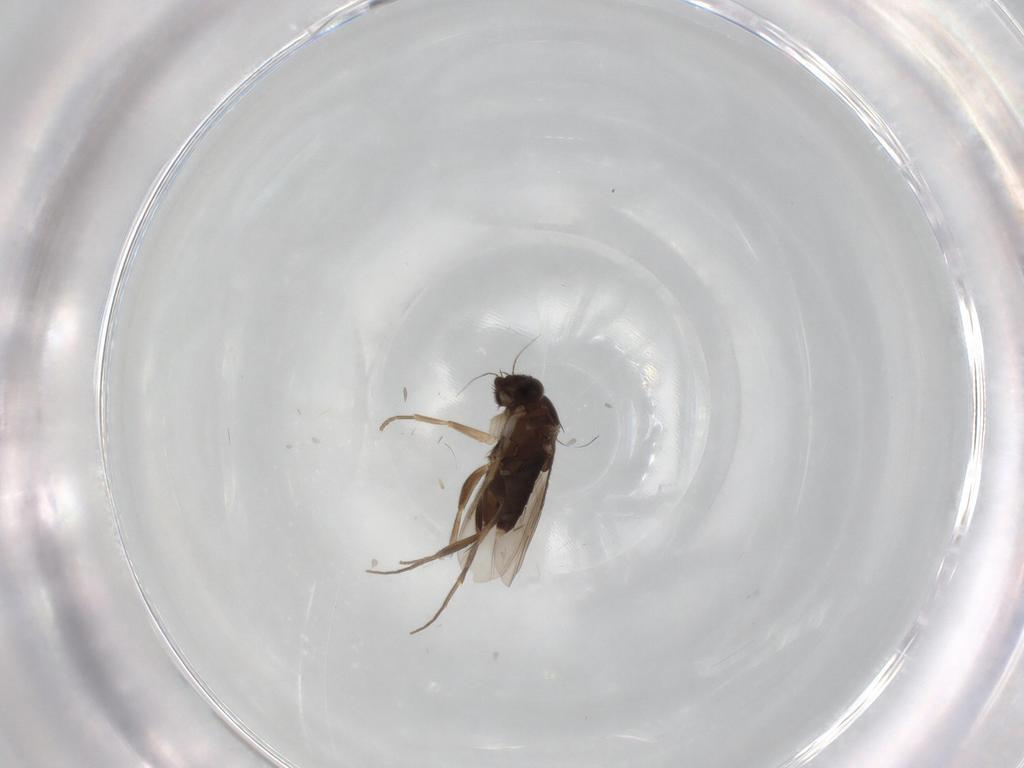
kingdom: Animalia
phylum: Arthropoda
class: Insecta
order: Diptera
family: Phoridae
